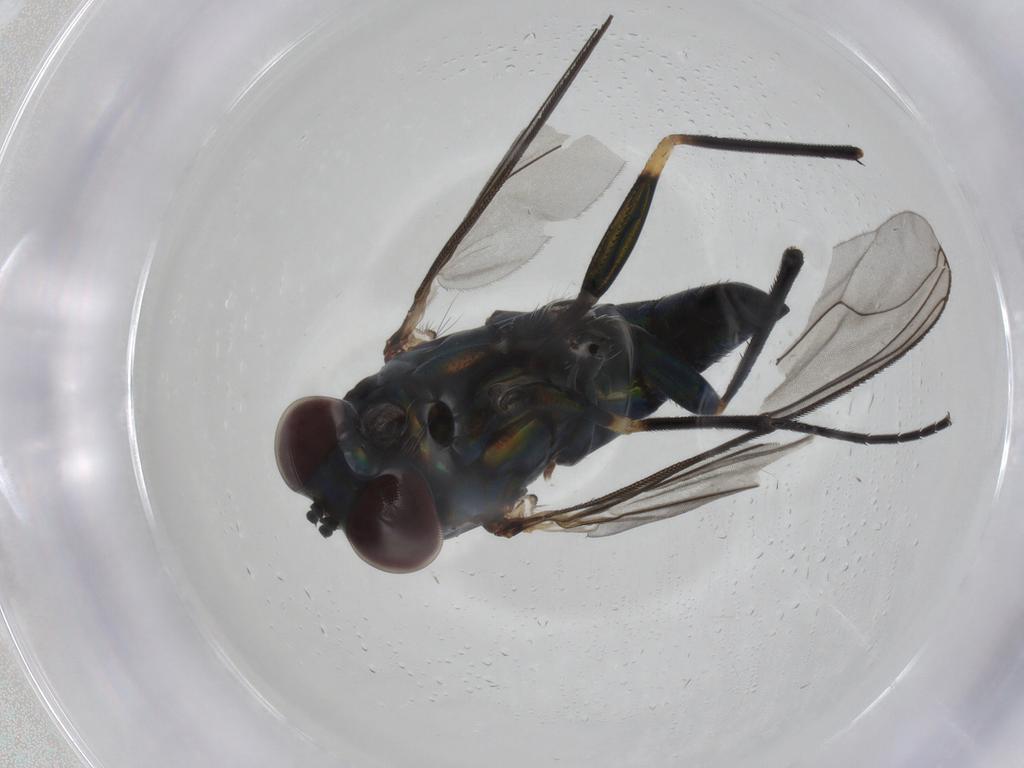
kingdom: Animalia
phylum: Arthropoda
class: Insecta
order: Diptera
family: Dolichopodidae
